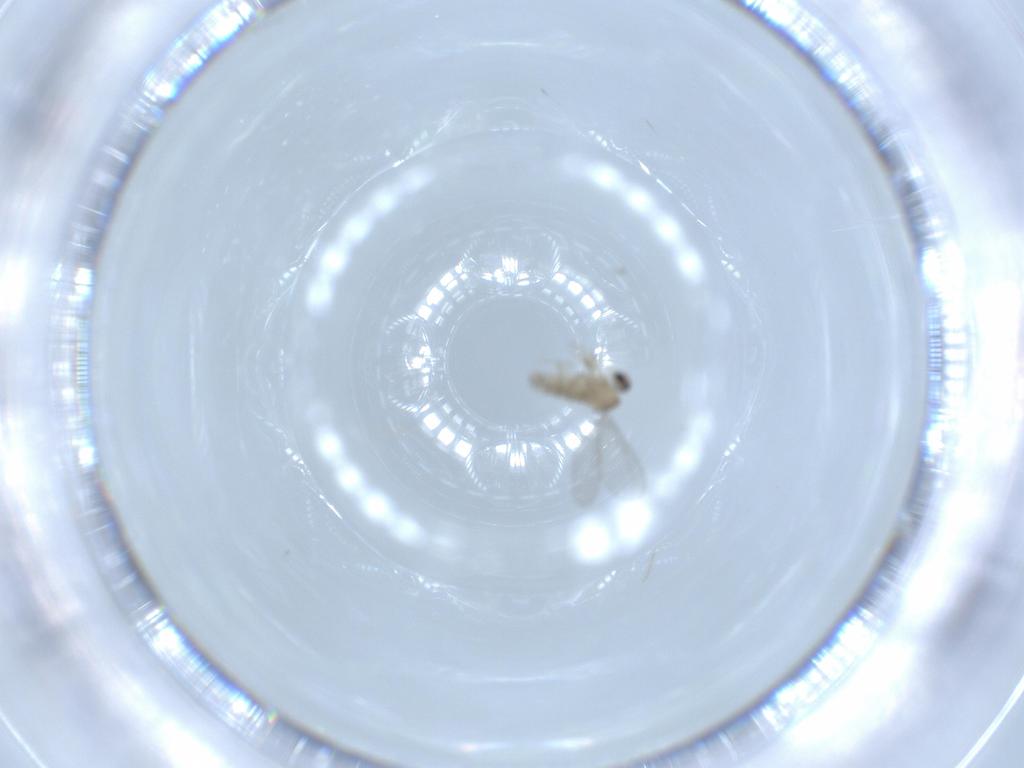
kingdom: Animalia
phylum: Arthropoda
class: Insecta
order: Diptera
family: Cecidomyiidae
